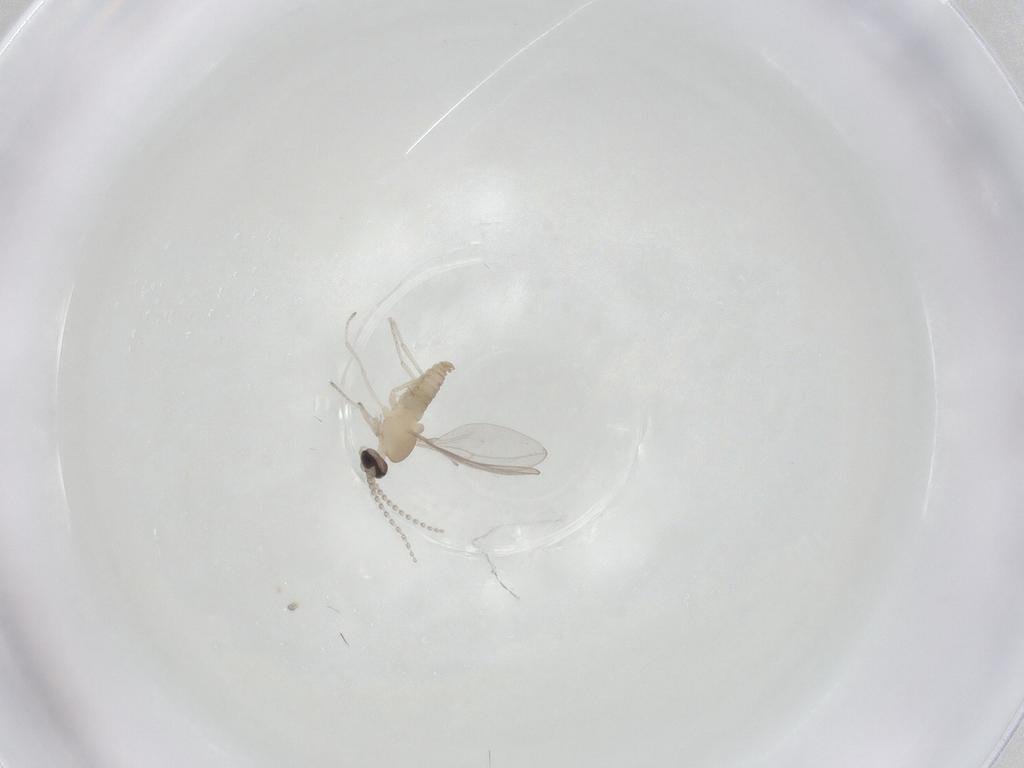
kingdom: Animalia
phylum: Arthropoda
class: Insecta
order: Diptera
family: Cecidomyiidae
